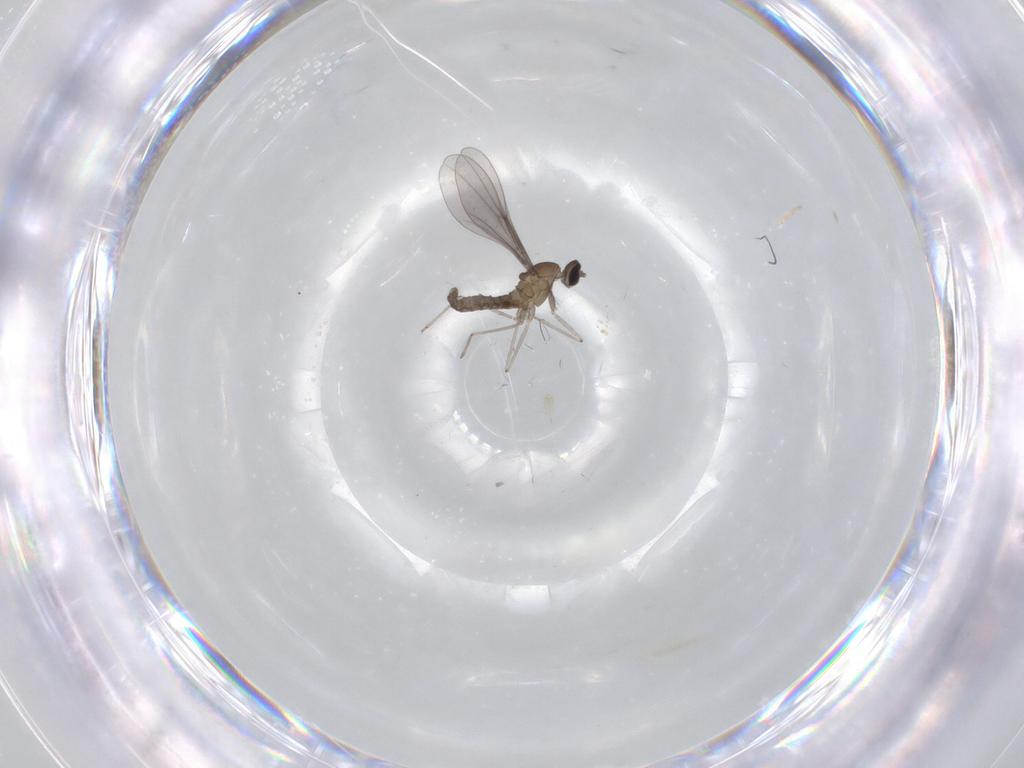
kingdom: Animalia
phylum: Arthropoda
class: Insecta
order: Diptera
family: Cecidomyiidae
